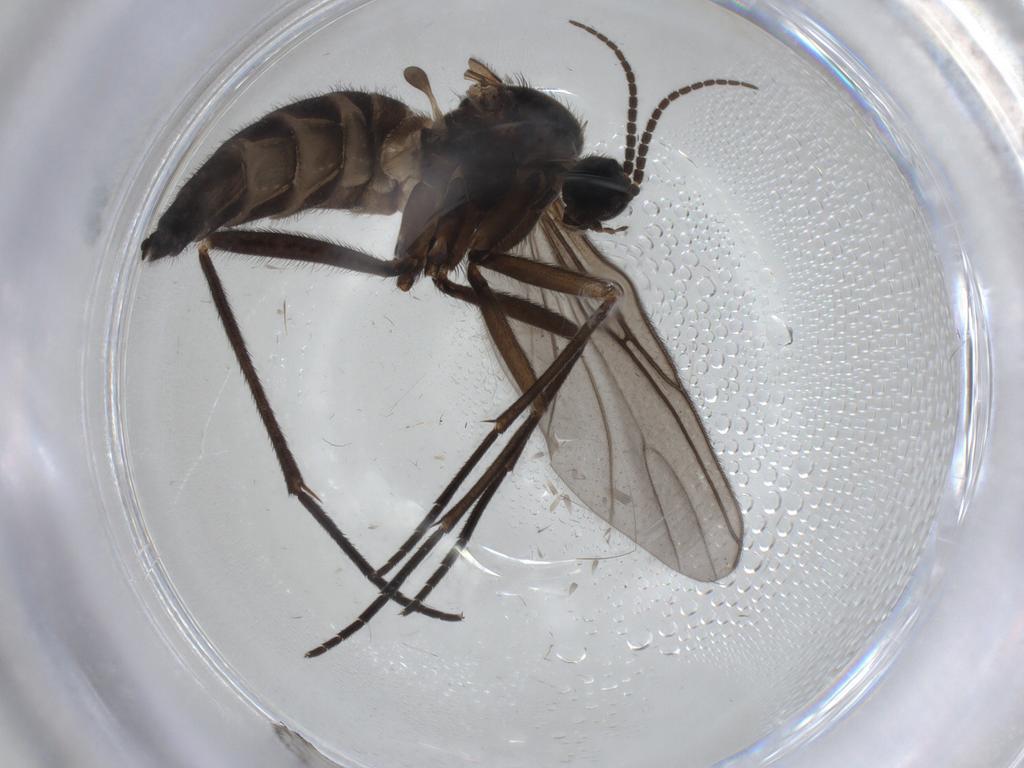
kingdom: Animalia
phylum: Arthropoda
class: Insecta
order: Diptera
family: Sciaridae
